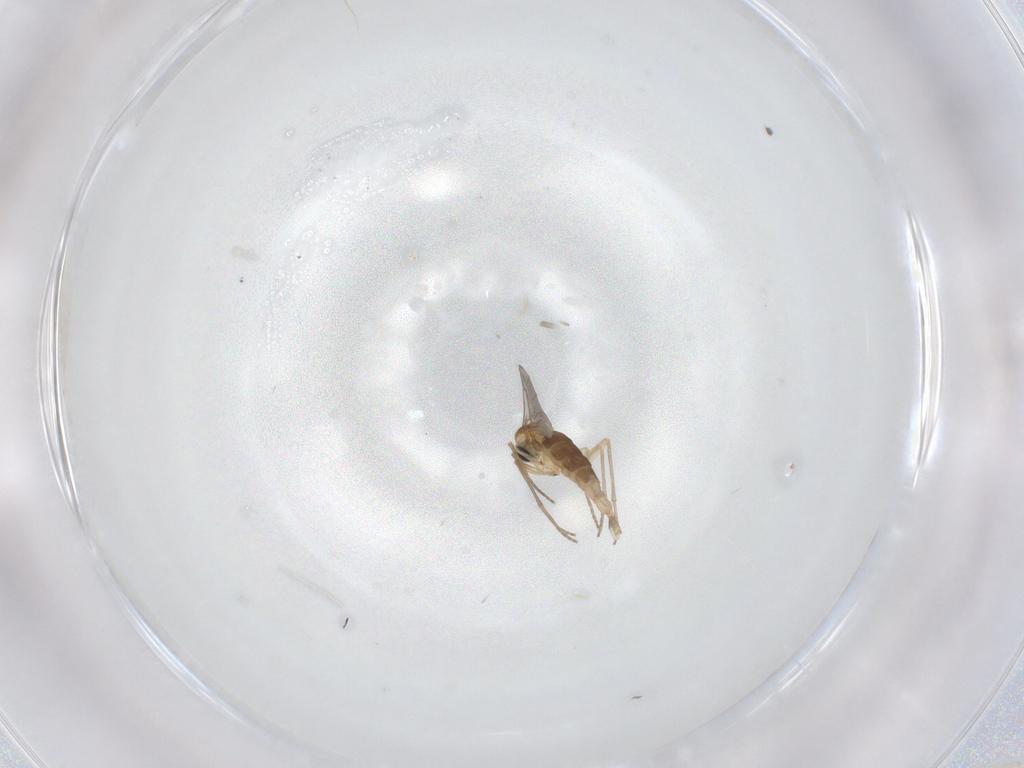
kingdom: Animalia
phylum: Arthropoda
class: Insecta
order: Diptera
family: Sciaridae
